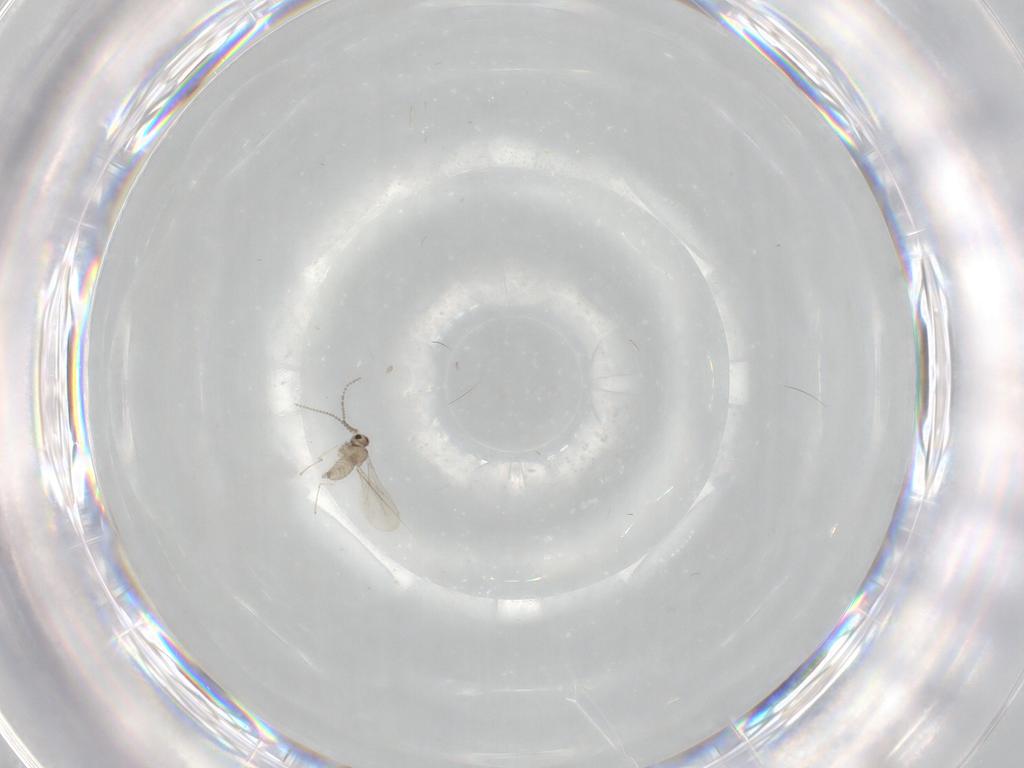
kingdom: Animalia
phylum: Arthropoda
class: Insecta
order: Diptera
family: Cecidomyiidae
